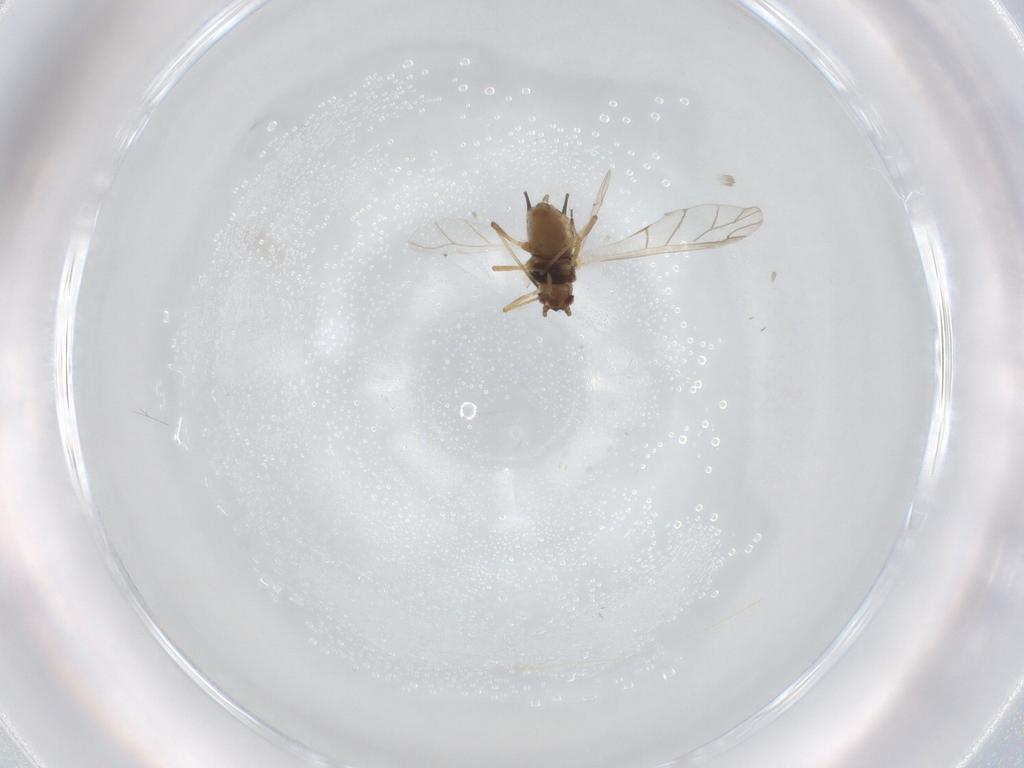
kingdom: Animalia
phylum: Arthropoda
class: Insecta
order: Hemiptera
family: Aphididae
